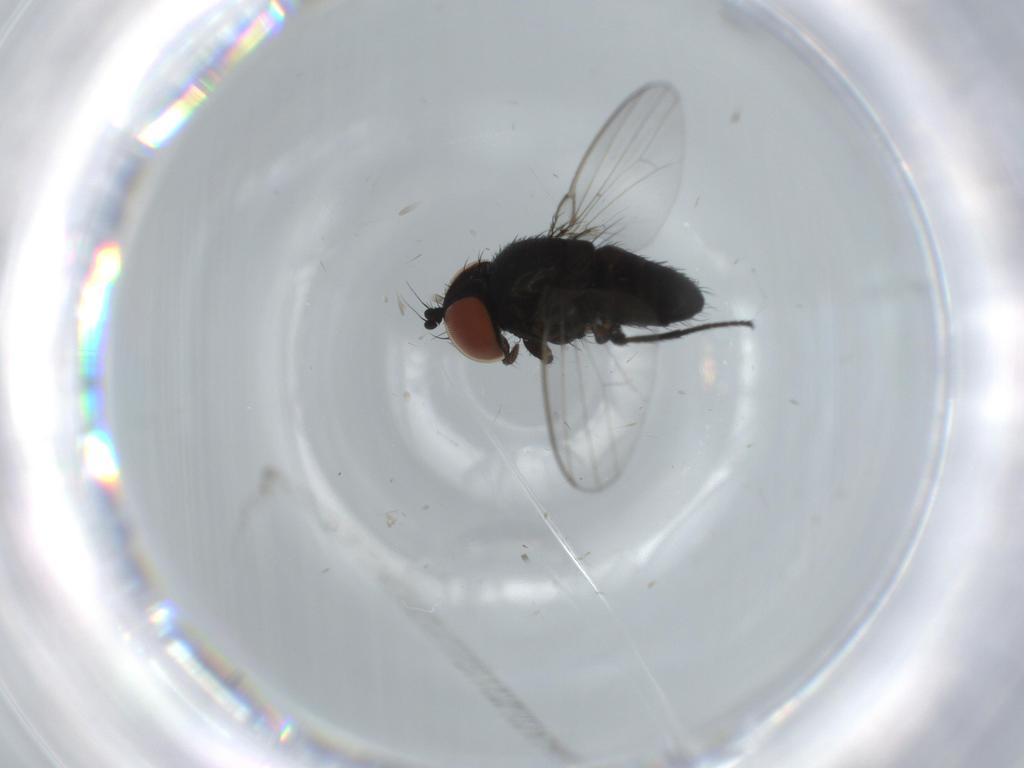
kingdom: Animalia
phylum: Arthropoda
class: Insecta
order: Diptera
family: Milichiidae
